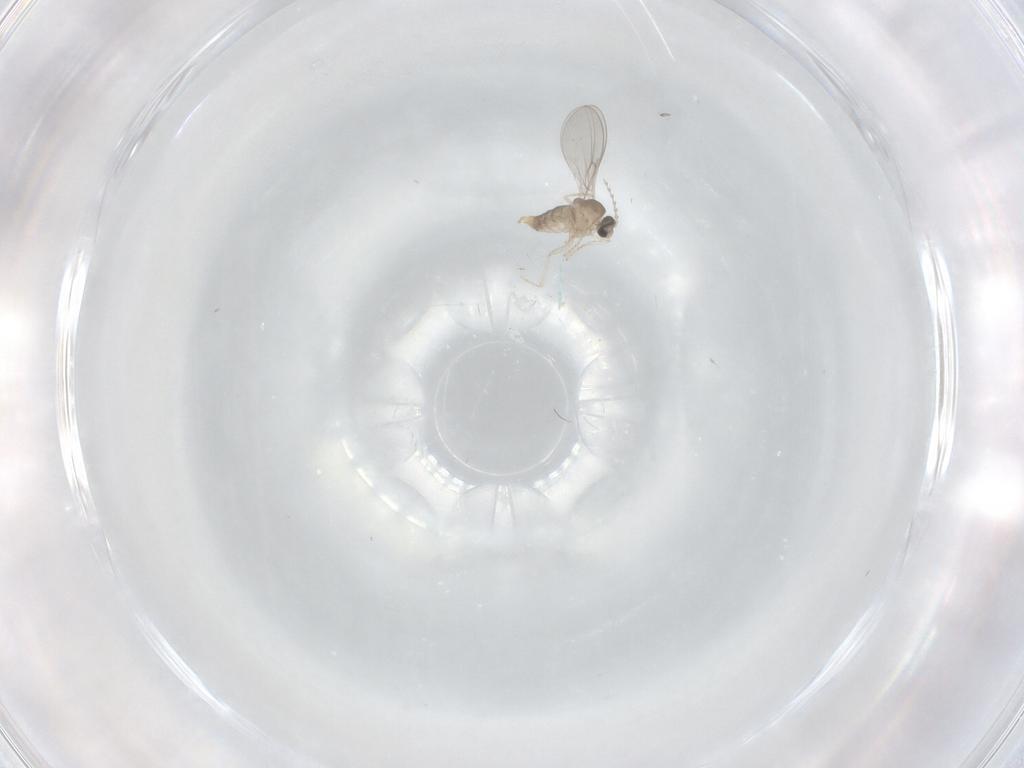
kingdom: Animalia
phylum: Arthropoda
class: Insecta
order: Diptera
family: Cecidomyiidae
